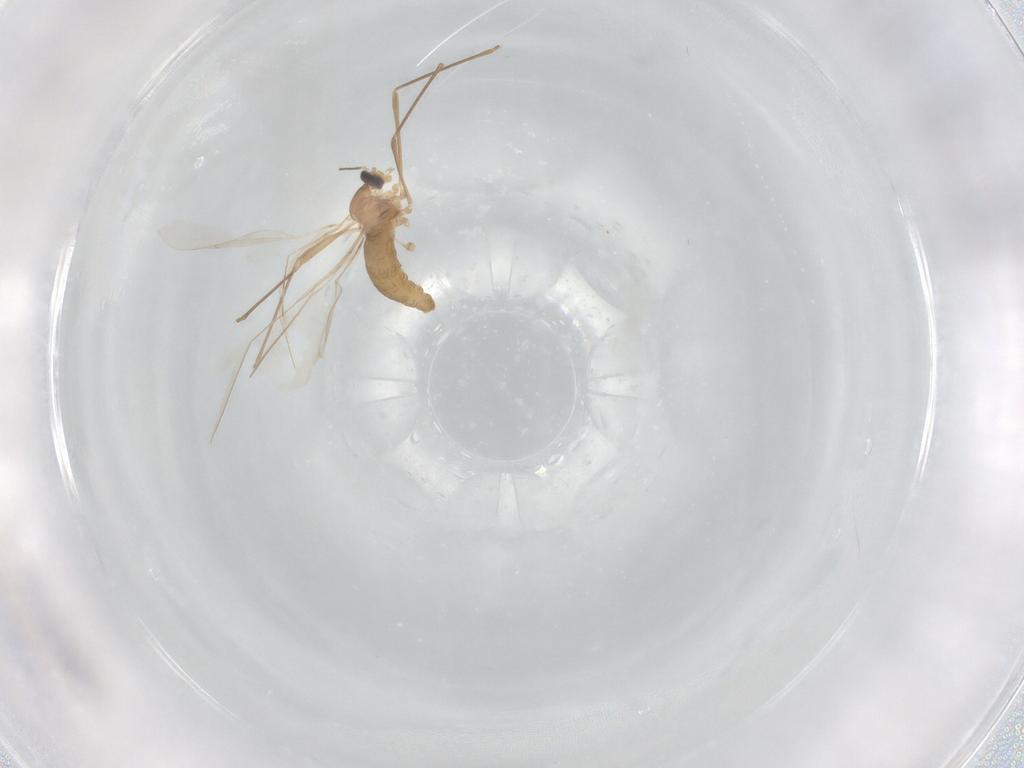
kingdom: Animalia
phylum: Arthropoda
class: Insecta
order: Diptera
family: Cecidomyiidae
